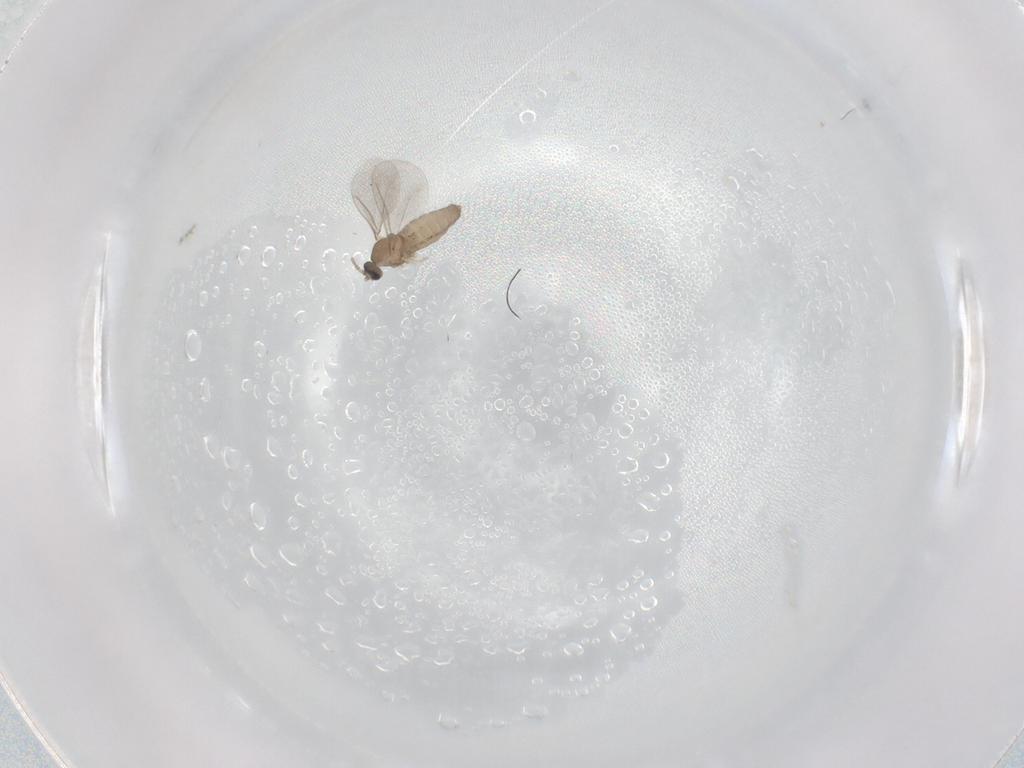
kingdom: Animalia
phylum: Arthropoda
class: Insecta
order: Diptera
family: Cecidomyiidae
